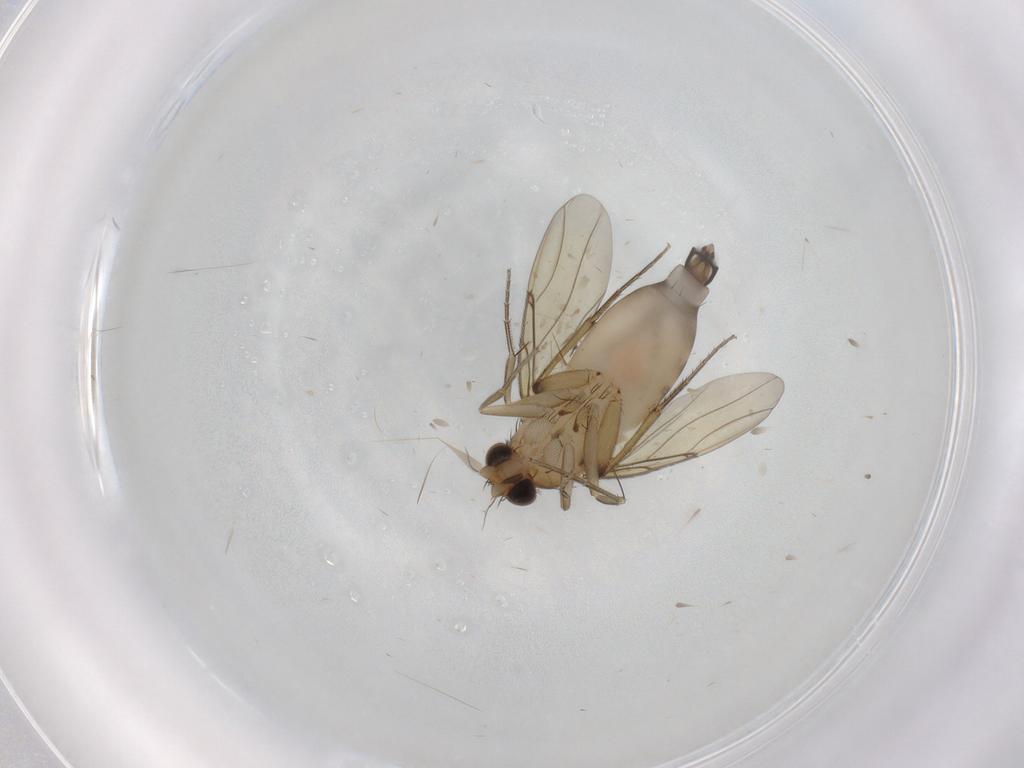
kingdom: Animalia
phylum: Arthropoda
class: Insecta
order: Diptera
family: Phoridae
